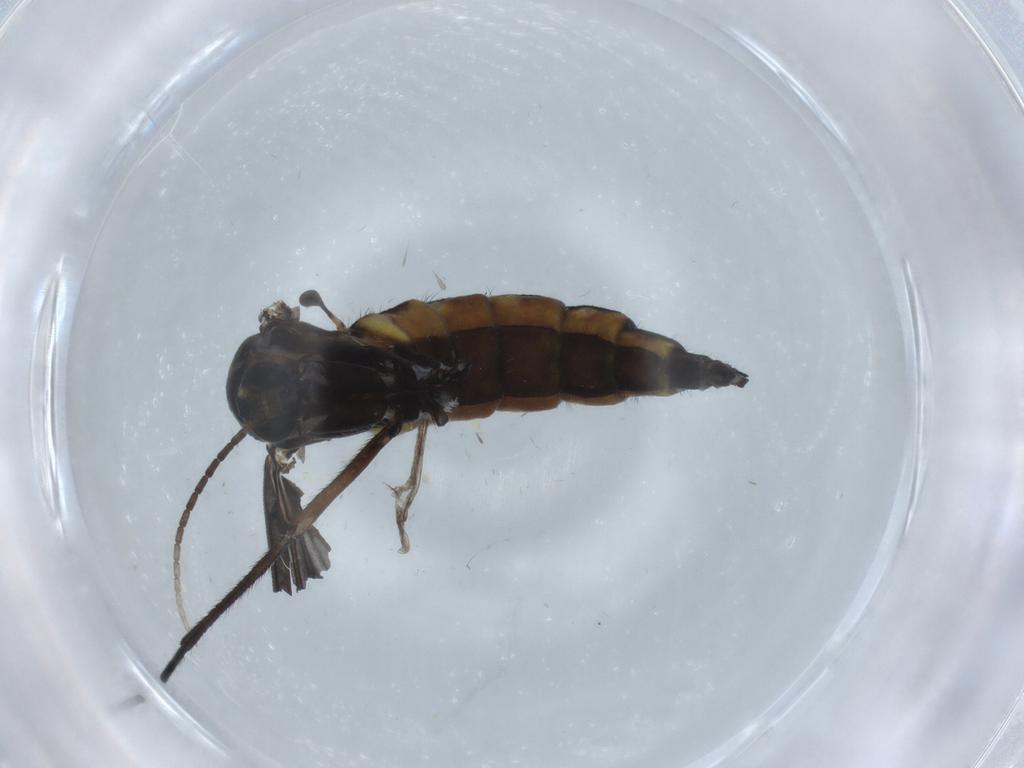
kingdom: Animalia
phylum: Arthropoda
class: Insecta
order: Diptera
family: Sciaridae
